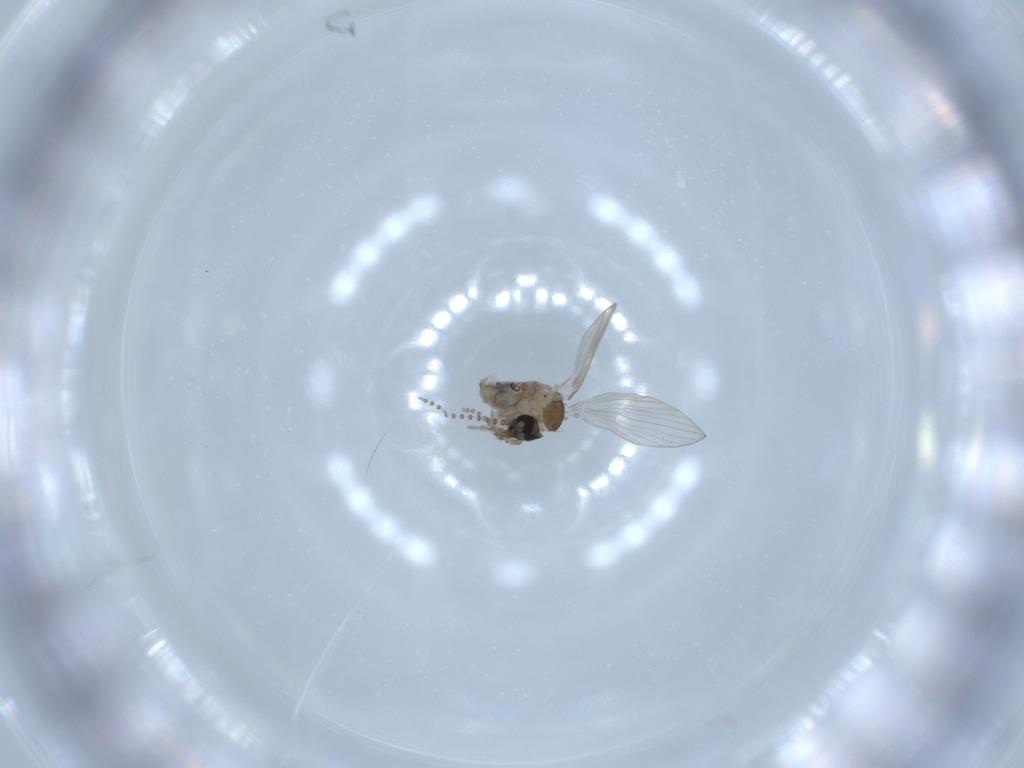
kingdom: Animalia
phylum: Arthropoda
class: Insecta
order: Diptera
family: Psychodidae
